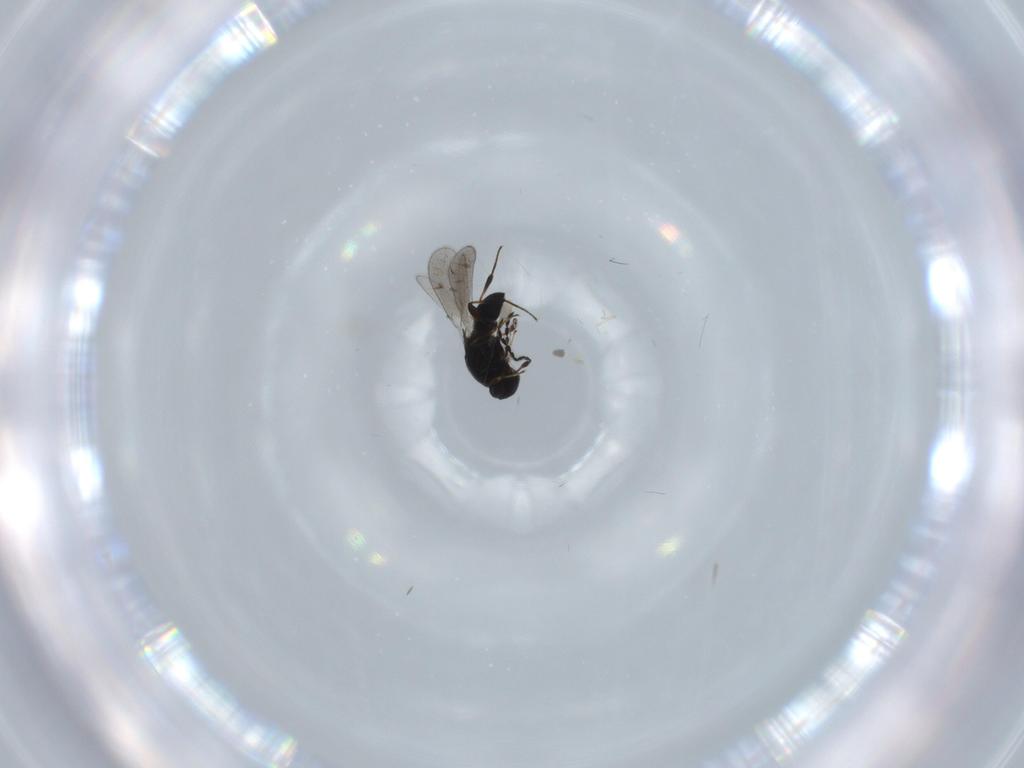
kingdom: Animalia
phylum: Arthropoda
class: Insecta
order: Hymenoptera
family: Platygastridae
